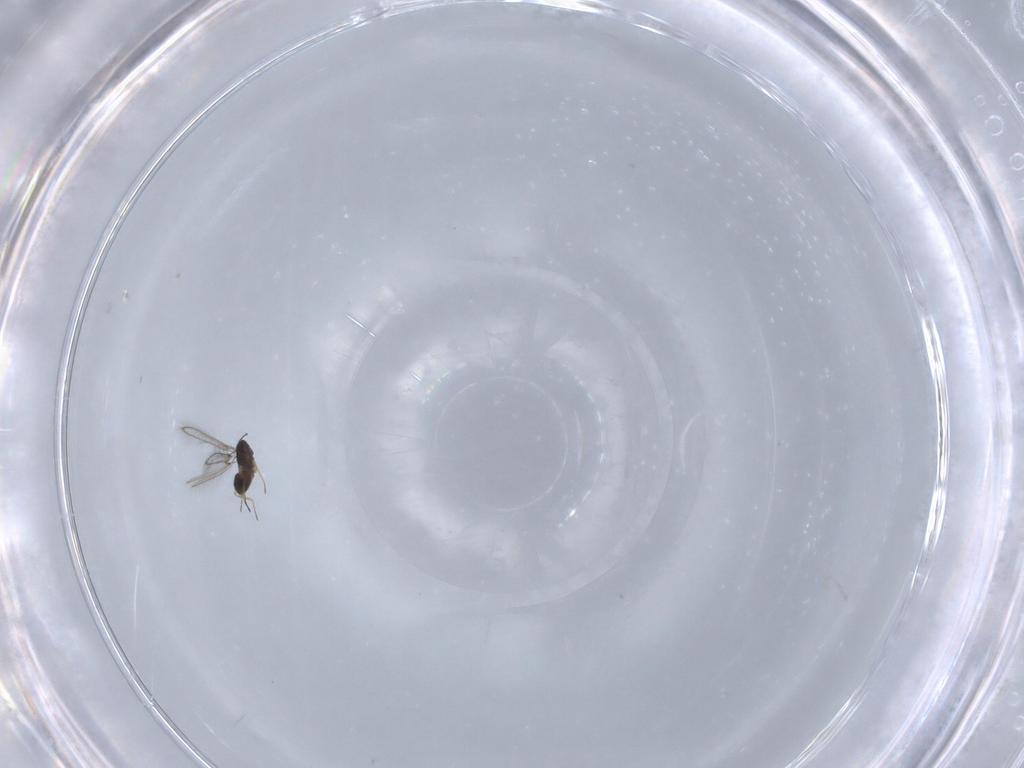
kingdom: Animalia
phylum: Arthropoda
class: Insecta
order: Hymenoptera
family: Mymaridae
